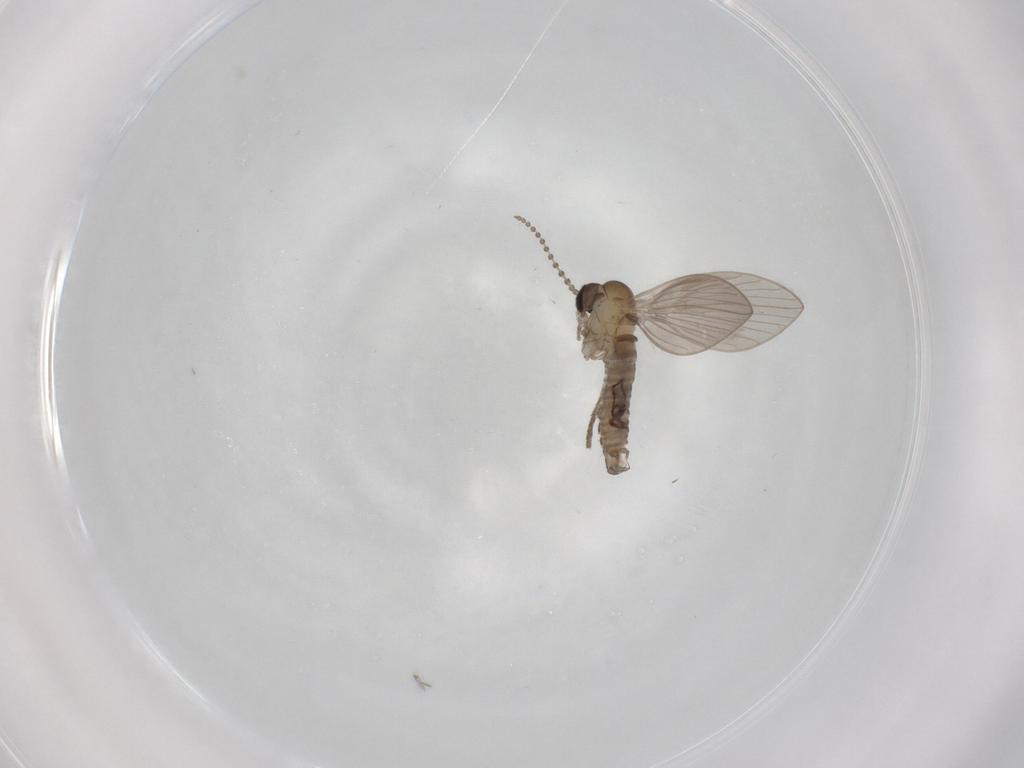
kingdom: Animalia
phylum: Arthropoda
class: Insecta
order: Diptera
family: Psychodidae
